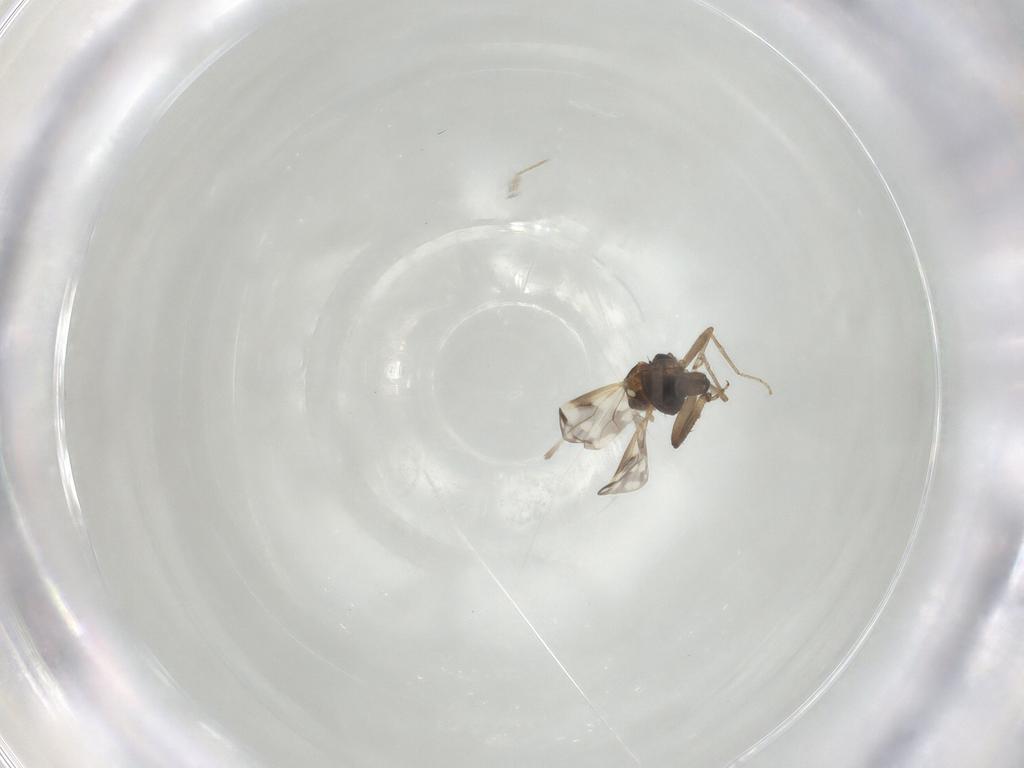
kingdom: Animalia
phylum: Arthropoda
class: Insecta
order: Diptera
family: Ceratopogonidae
